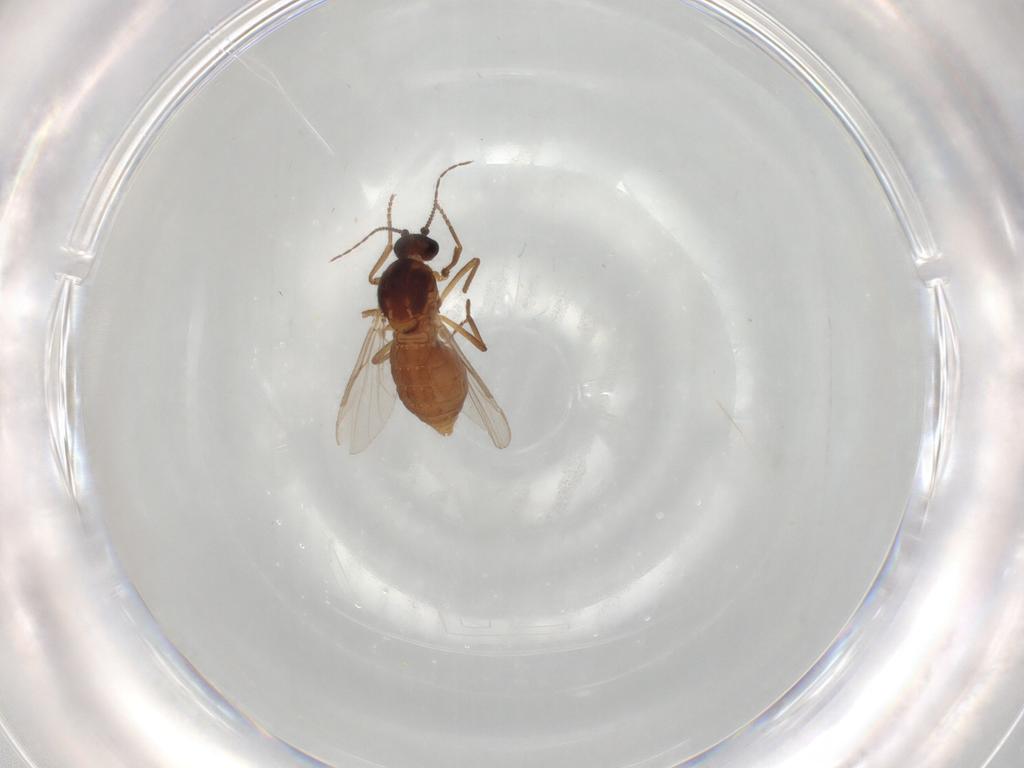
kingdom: Animalia
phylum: Arthropoda
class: Insecta
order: Diptera
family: Ceratopogonidae
